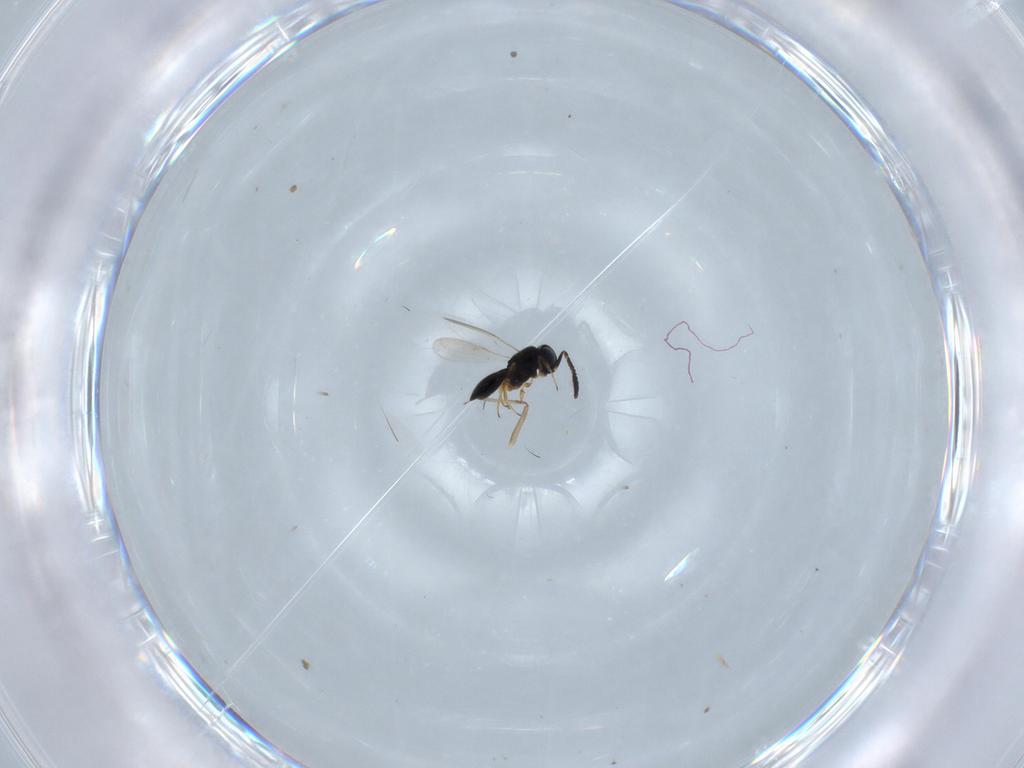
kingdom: Animalia
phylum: Arthropoda
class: Insecta
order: Hymenoptera
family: Scelionidae
